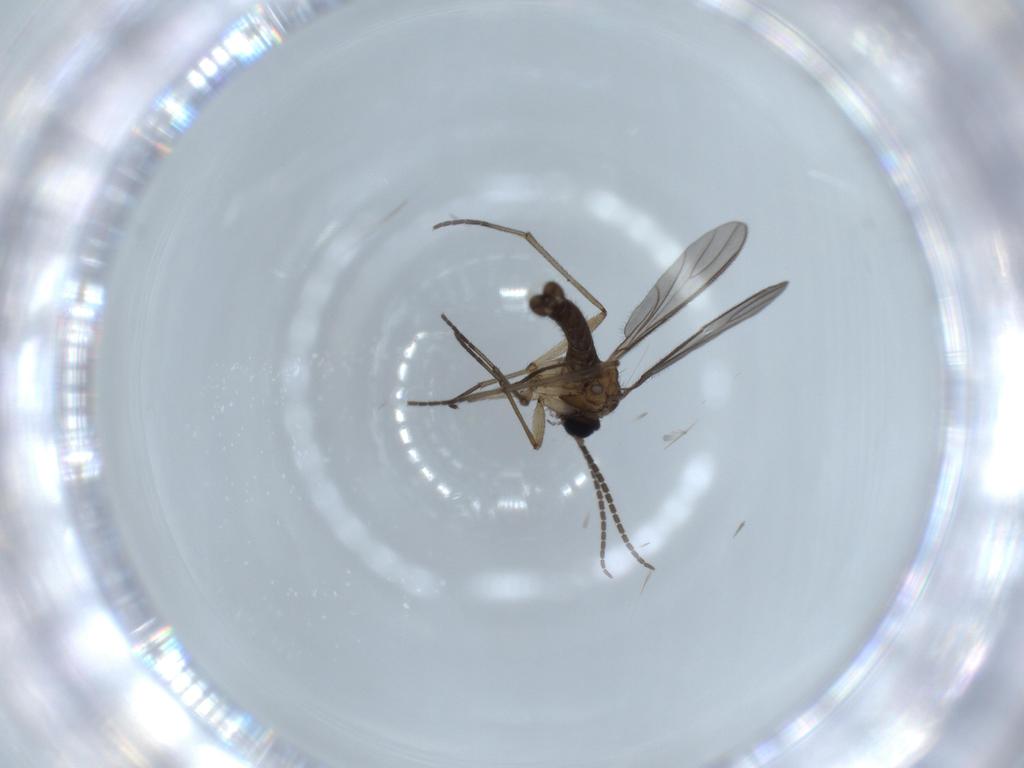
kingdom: Animalia
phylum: Arthropoda
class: Insecta
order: Diptera
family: Sciaridae
